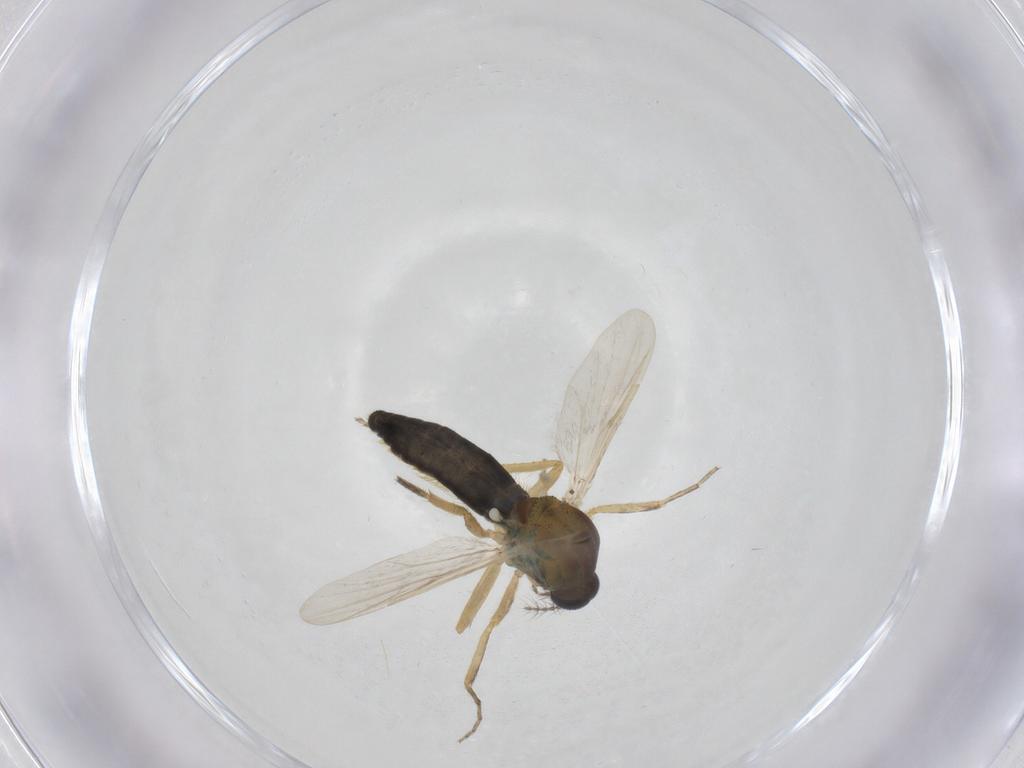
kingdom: Animalia
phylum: Arthropoda
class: Insecta
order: Diptera
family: Ceratopogonidae
